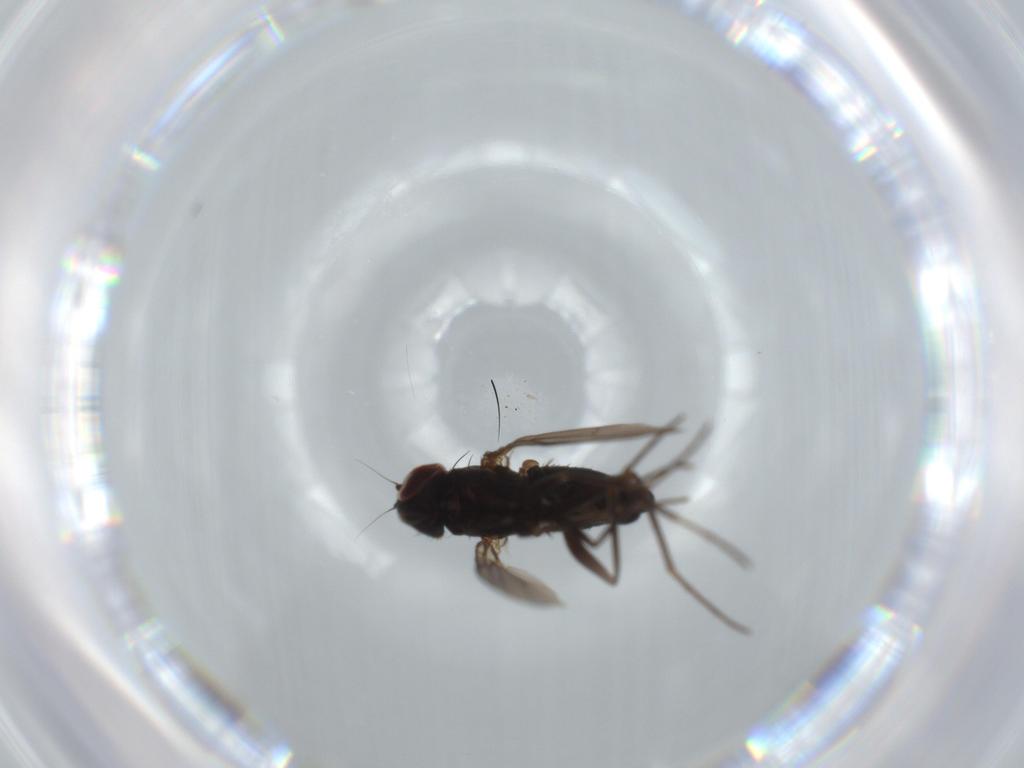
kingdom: Animalia
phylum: Arthropoda
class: Insecta
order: Diptera
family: Dolichopodidae
